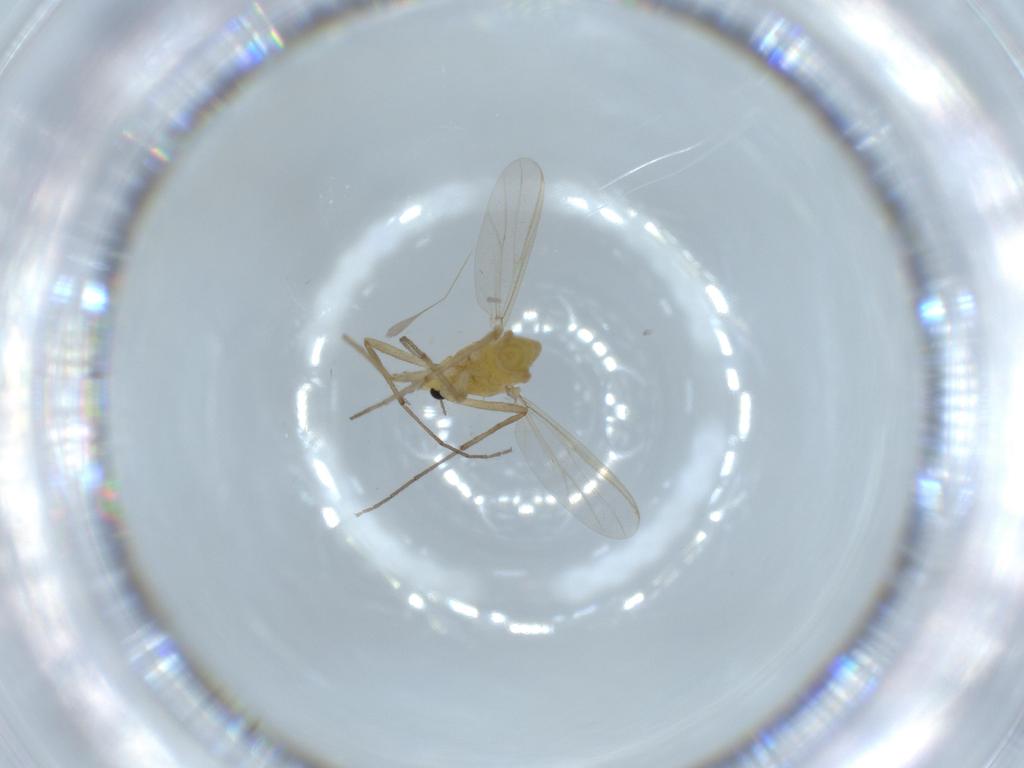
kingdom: Animalia
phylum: Arthropoda
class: Insecta
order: Diptera
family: Chironomidae
